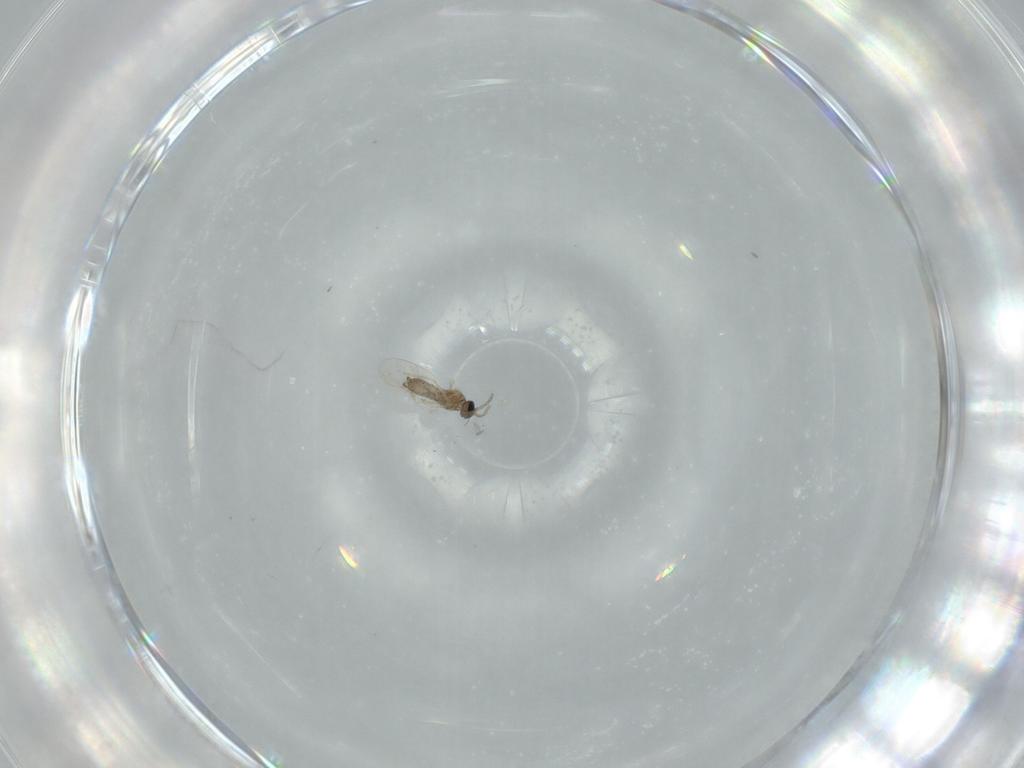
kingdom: Animalia
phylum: Arthropoda
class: Insecta
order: Diptera
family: Cecidomyiidae
